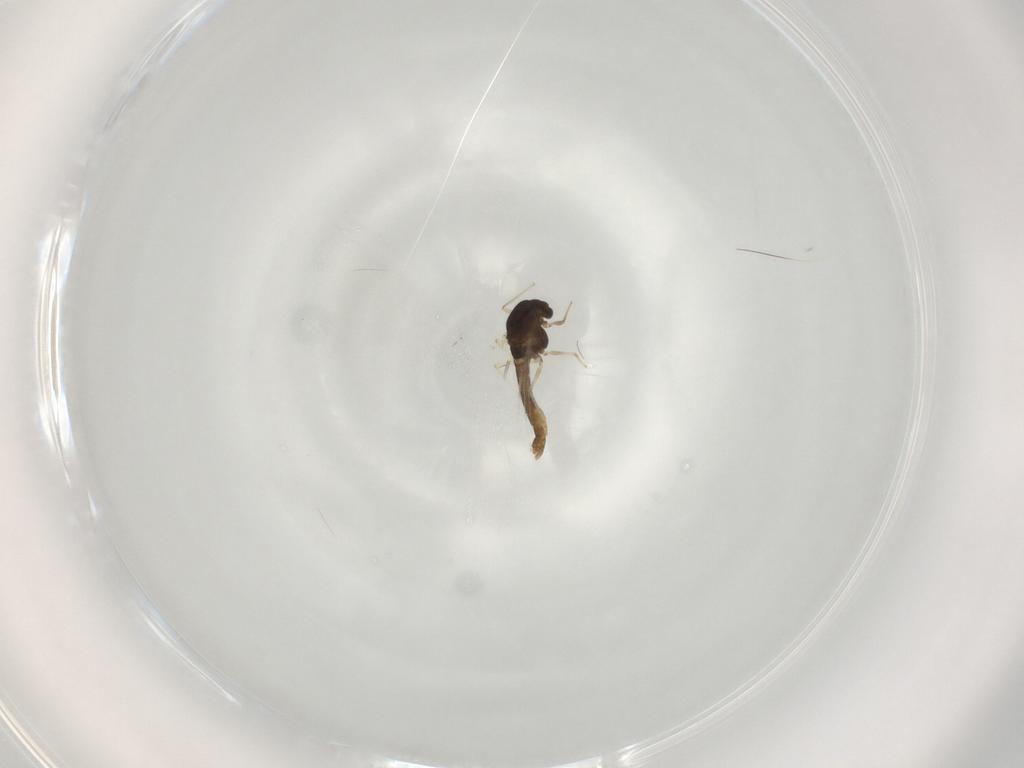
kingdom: Animalia
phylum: Arthropoda
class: Insecta
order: Diptera
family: Chironomidae
